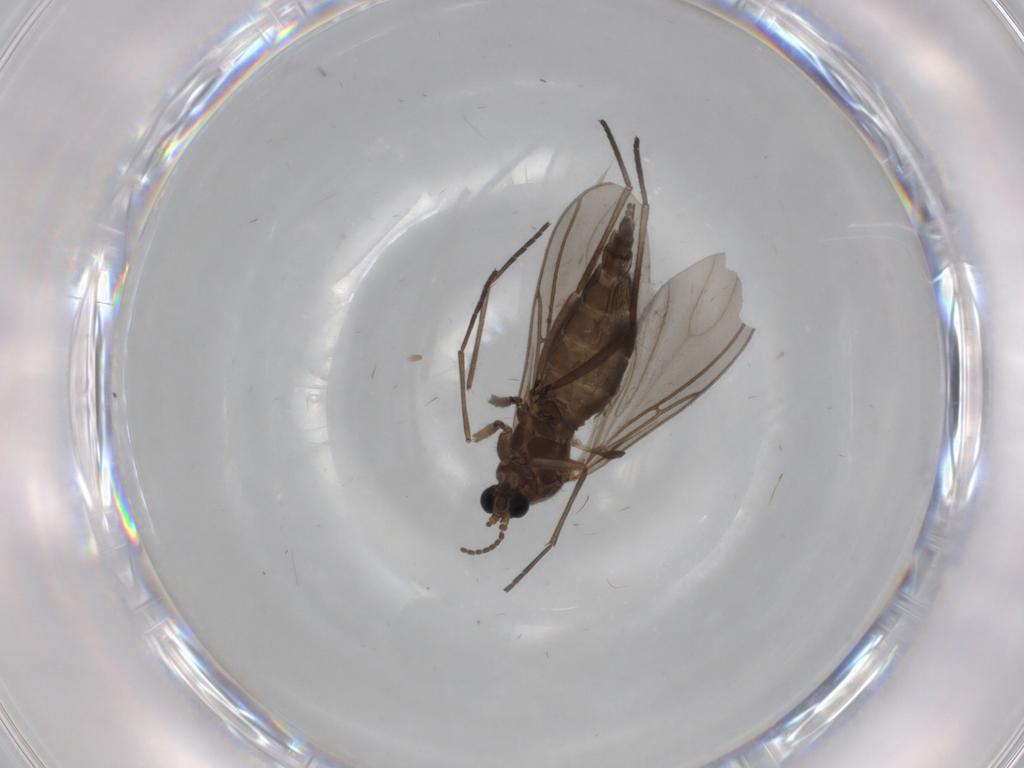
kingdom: Animalia
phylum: Arthropoda
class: Insecta
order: Diptera
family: Sciaridae
